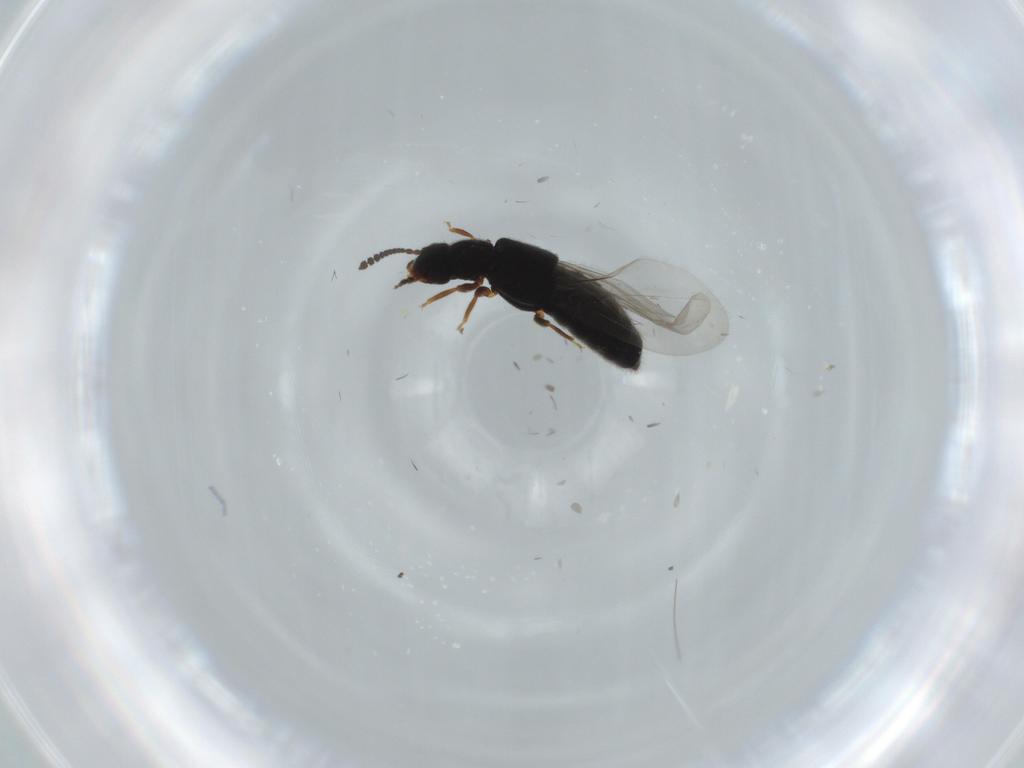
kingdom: Animalia
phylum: Arthropoda
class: Insecta
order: Coleoptera
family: Staphylinidae
